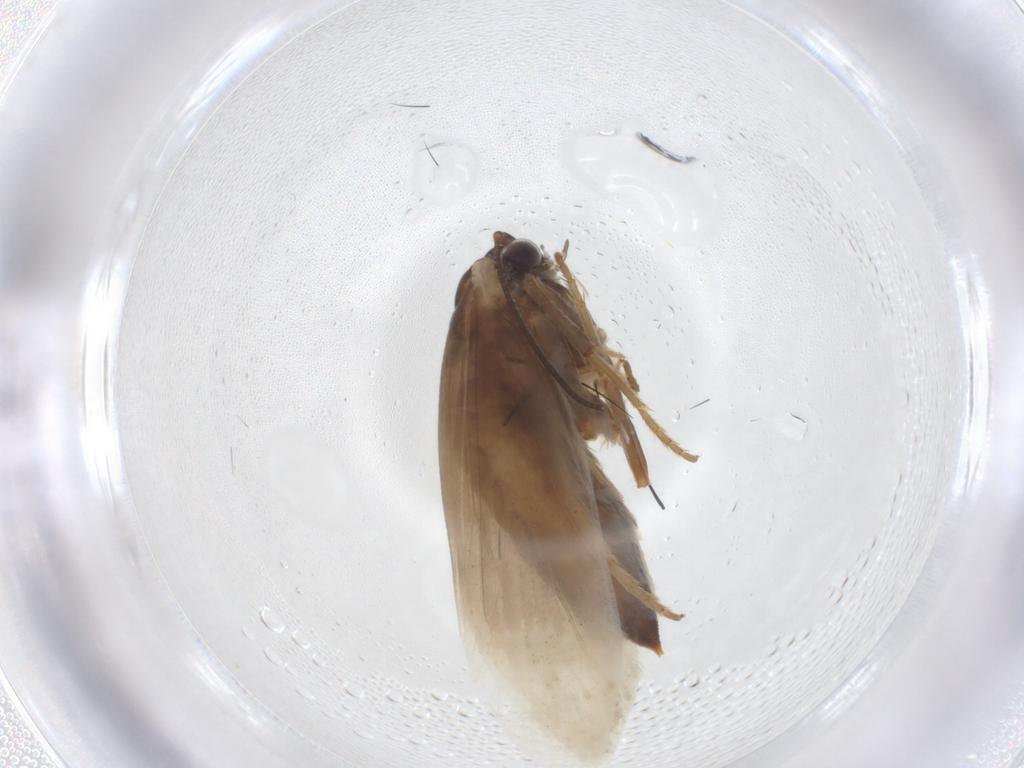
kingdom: Animalia
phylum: Arthropoda
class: Insecta
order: Lepidoptera
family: Tridentaformidae
